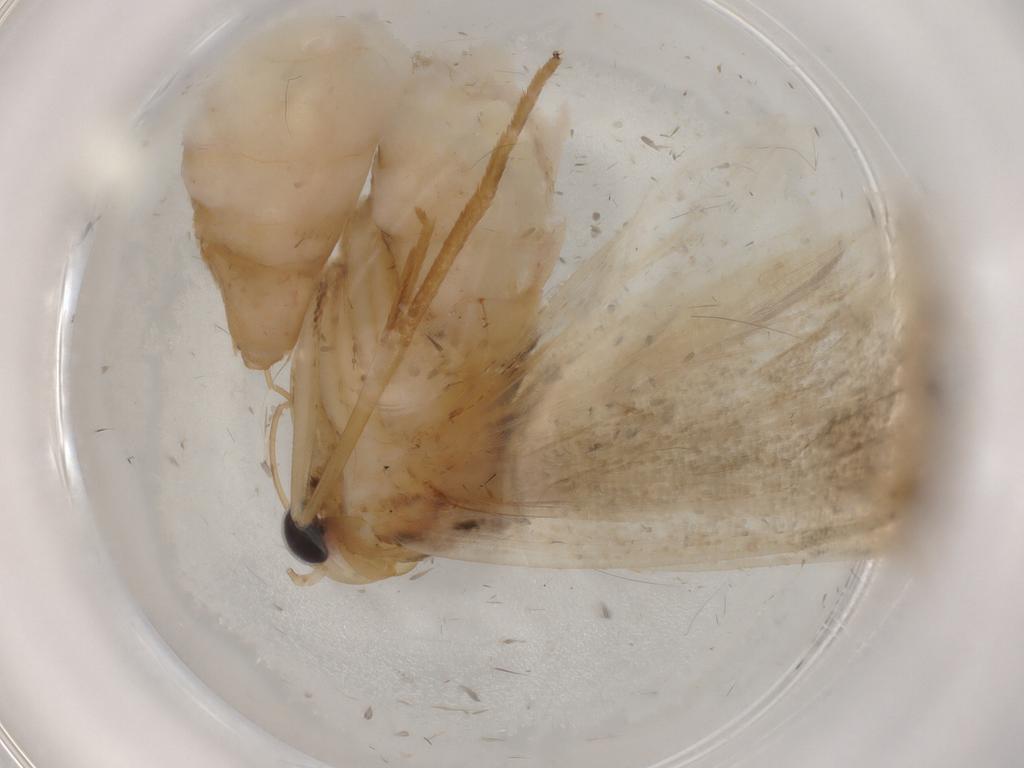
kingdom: Animalia
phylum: Arthropoda
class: Insecta
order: Lepidoptera
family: Noctuidae
